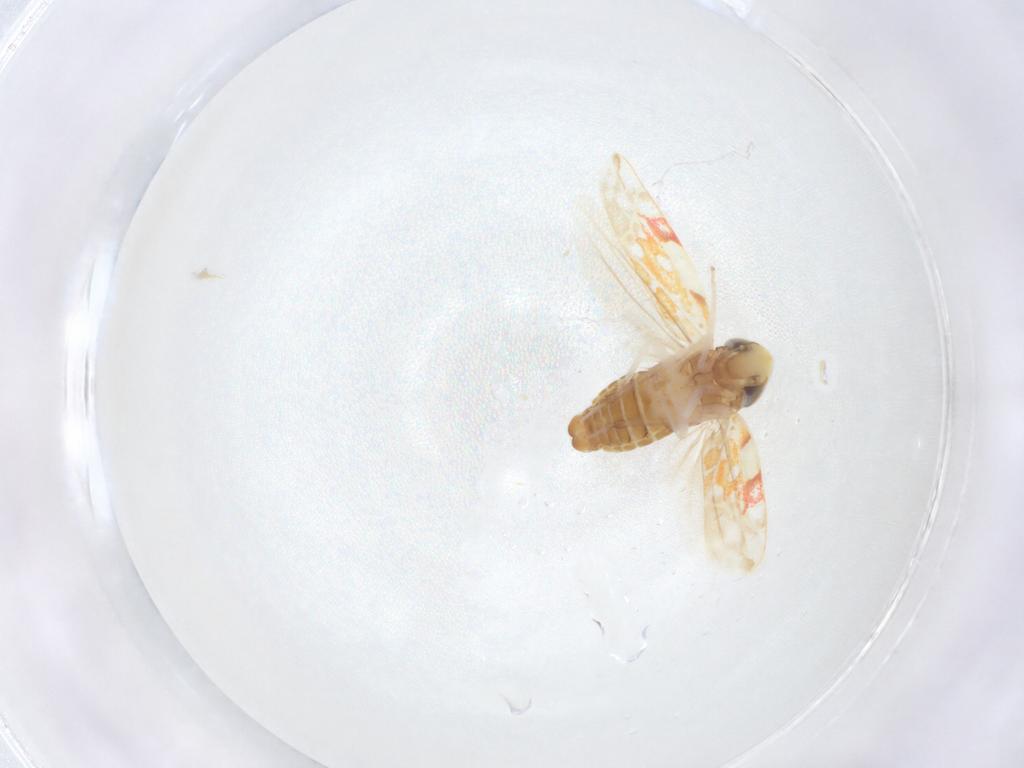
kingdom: Animalia
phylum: Arthropoda
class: Insecta
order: Hemiptera
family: Cicadellidae
